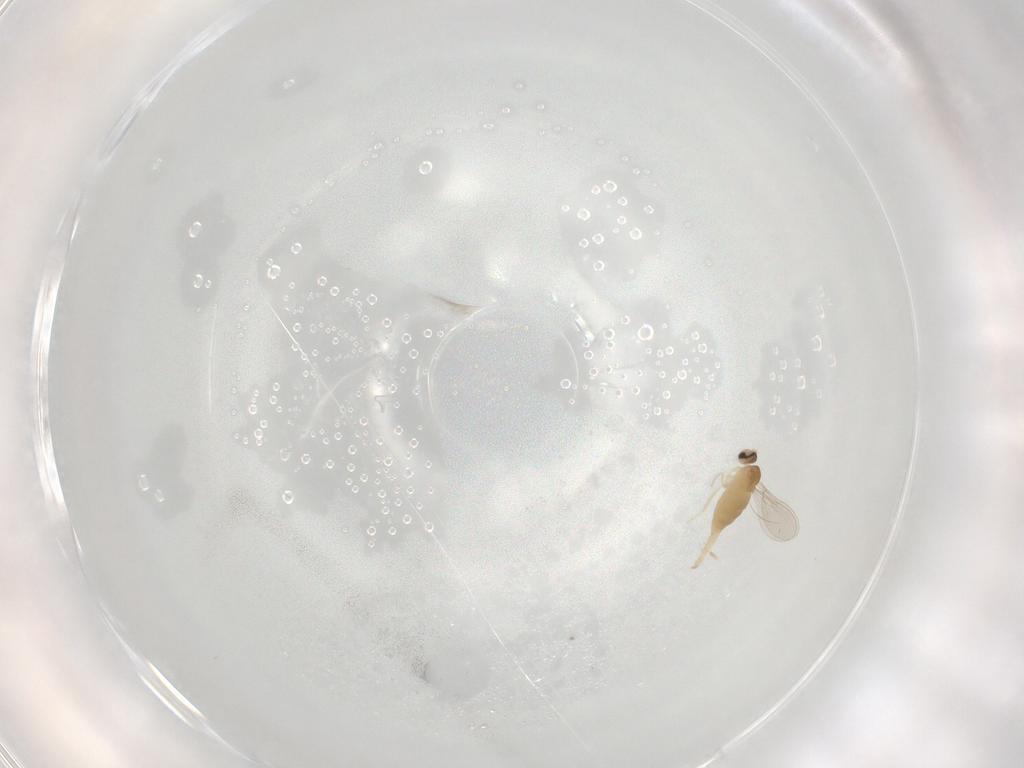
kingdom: Animalia
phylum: Arthropoda
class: Insecta
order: Diptera
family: Cecidomyiidae
